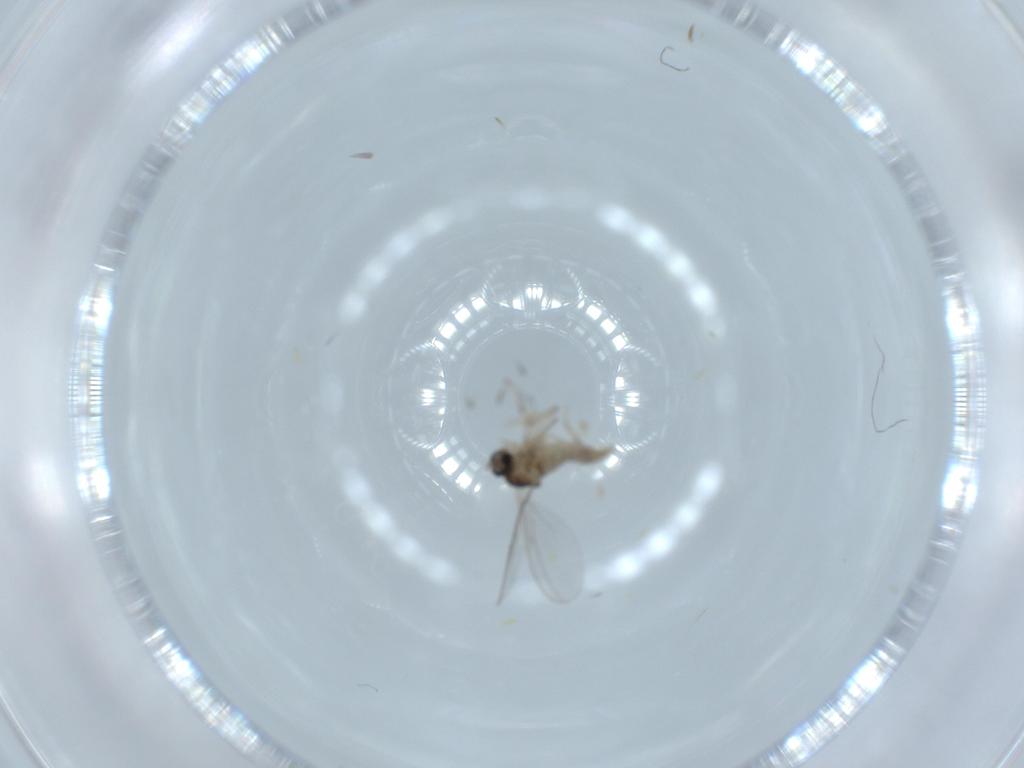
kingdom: Animalia
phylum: Arthropoda
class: Insecta
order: Diptera
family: Cecidomyiidae
